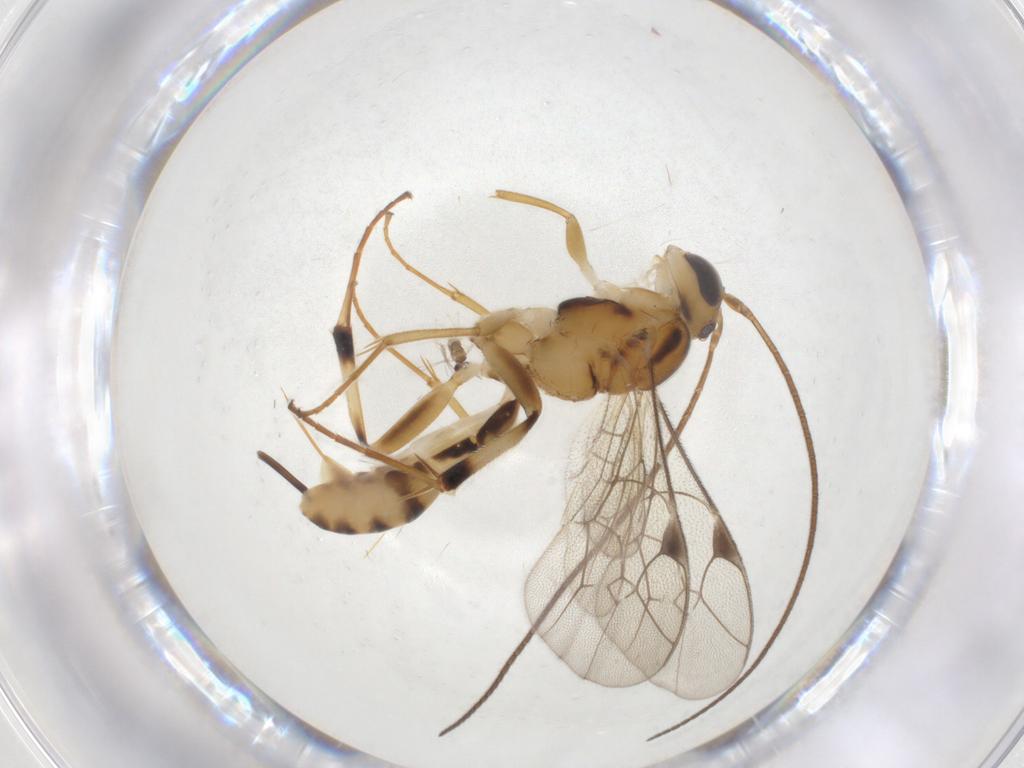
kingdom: Animalia
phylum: Arthropoda
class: Insecta
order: Hymenoptera
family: Ichneumonidae
